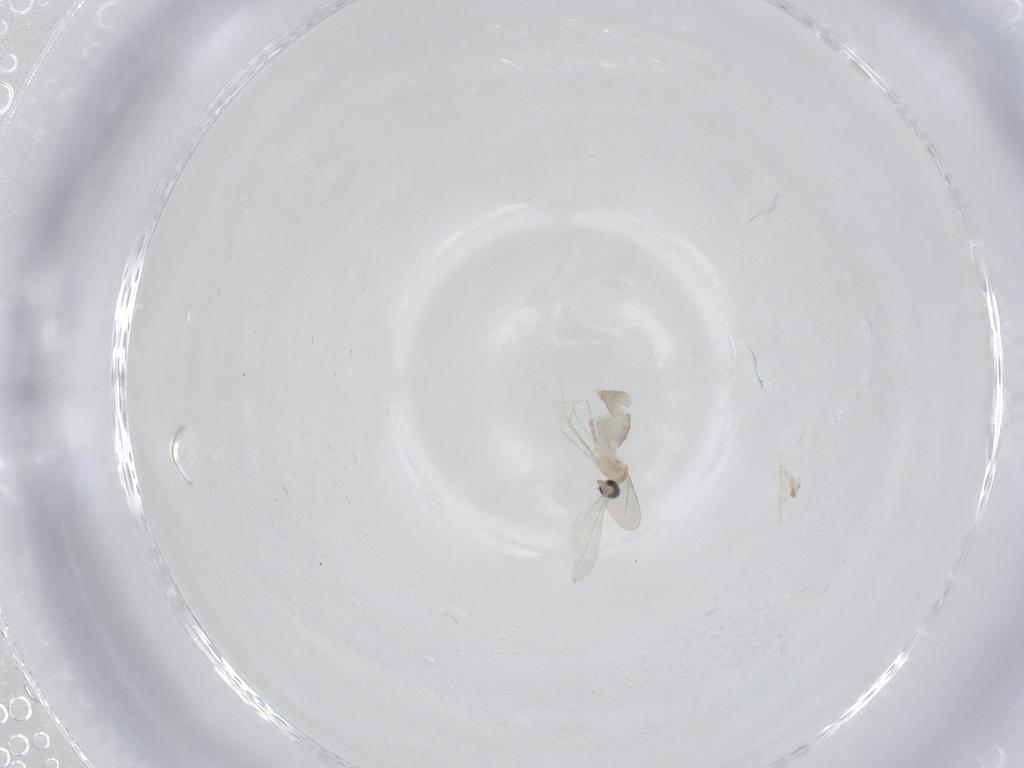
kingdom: Animalia
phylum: Arthropoda
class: Insecta
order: Diptera
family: Cecidomyiidae
